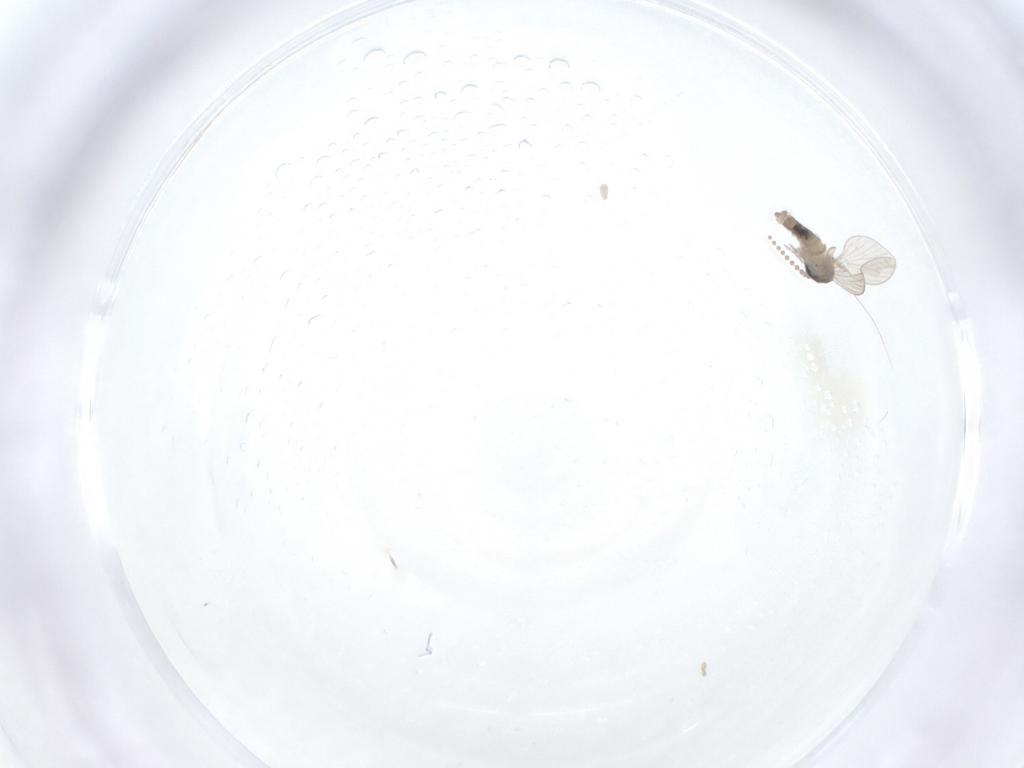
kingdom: Animalia
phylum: Arthropoda
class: Insecta
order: Diptera
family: Psychodidae
